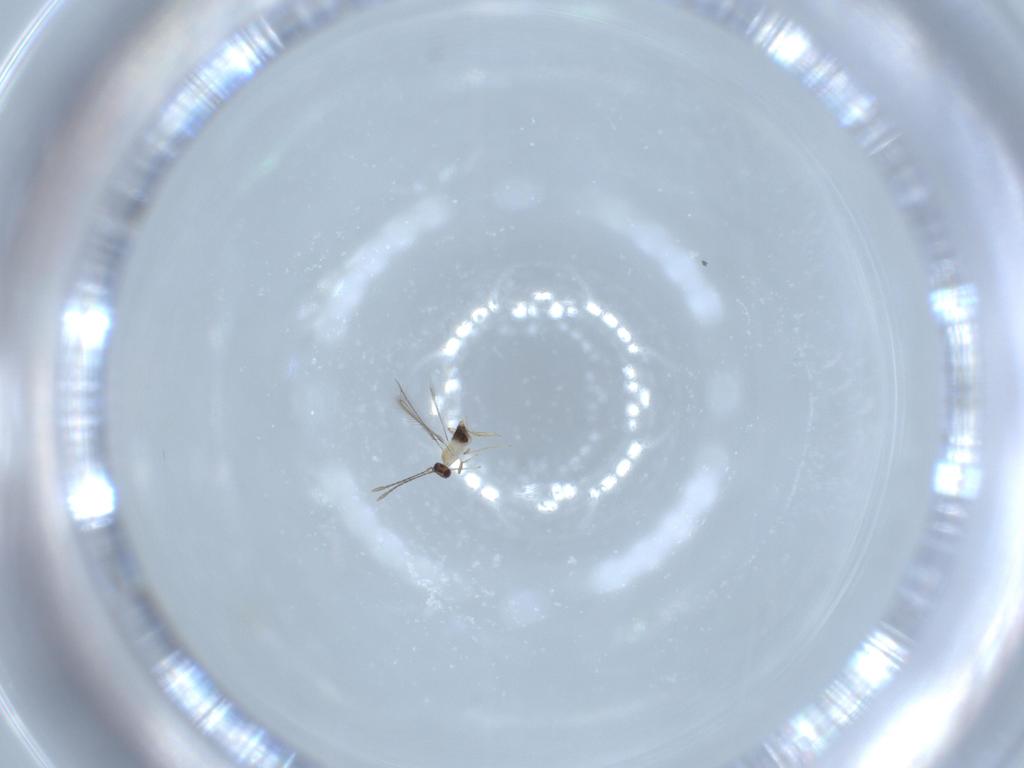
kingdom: Animalia
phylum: Arthropoda
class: Insecta
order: Hymenoptera
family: Mymaridae
